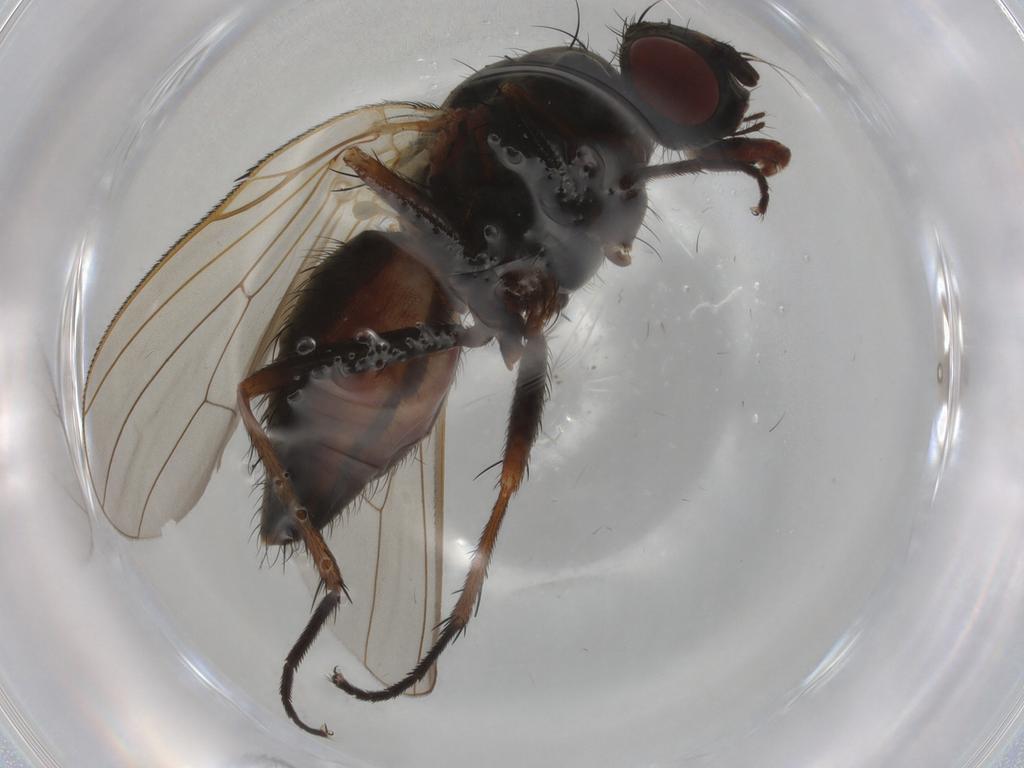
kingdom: Animalia
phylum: Arthropoda
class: Insecta
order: Diptera
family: Anthomyiidae
